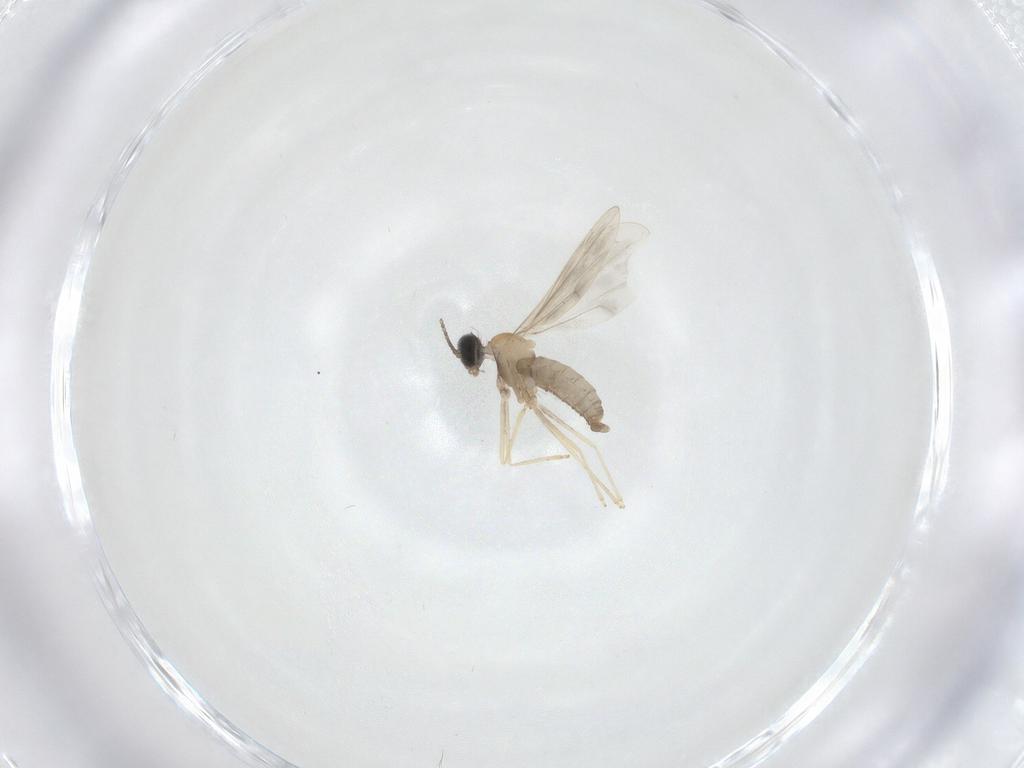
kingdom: Animalia
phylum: Arthropoda
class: Insecta
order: Diptera
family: Cecidomyiidae
